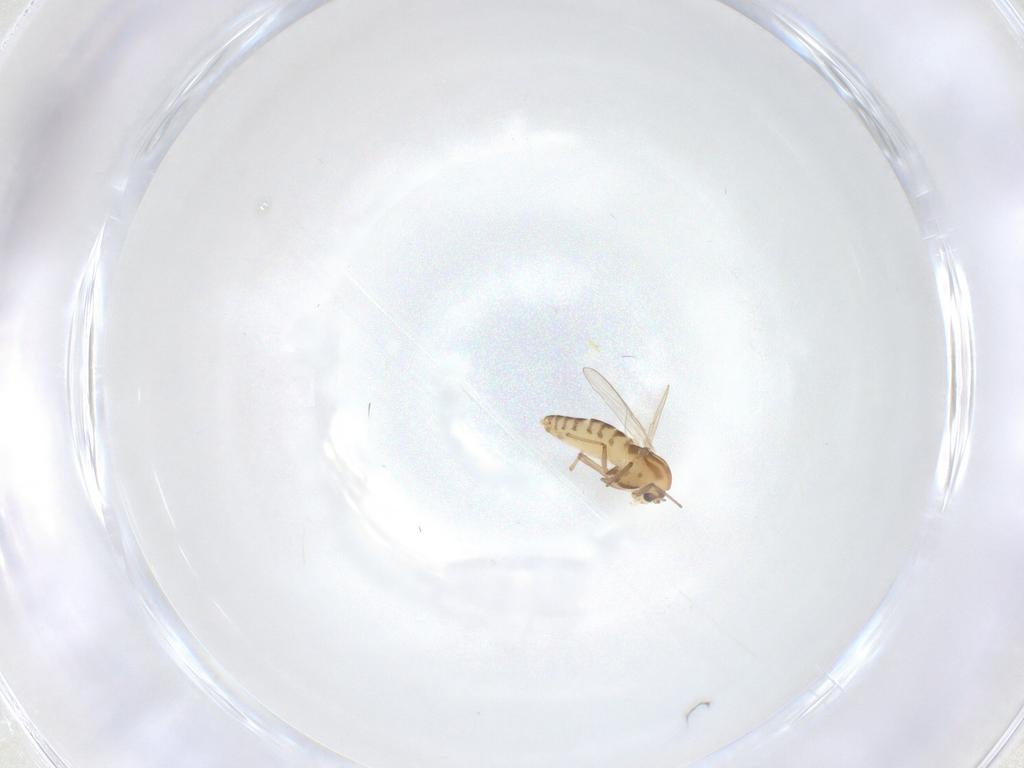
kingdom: Animalia
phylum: Arthropoda
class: Insecta
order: Diptera
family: Chironomidae
